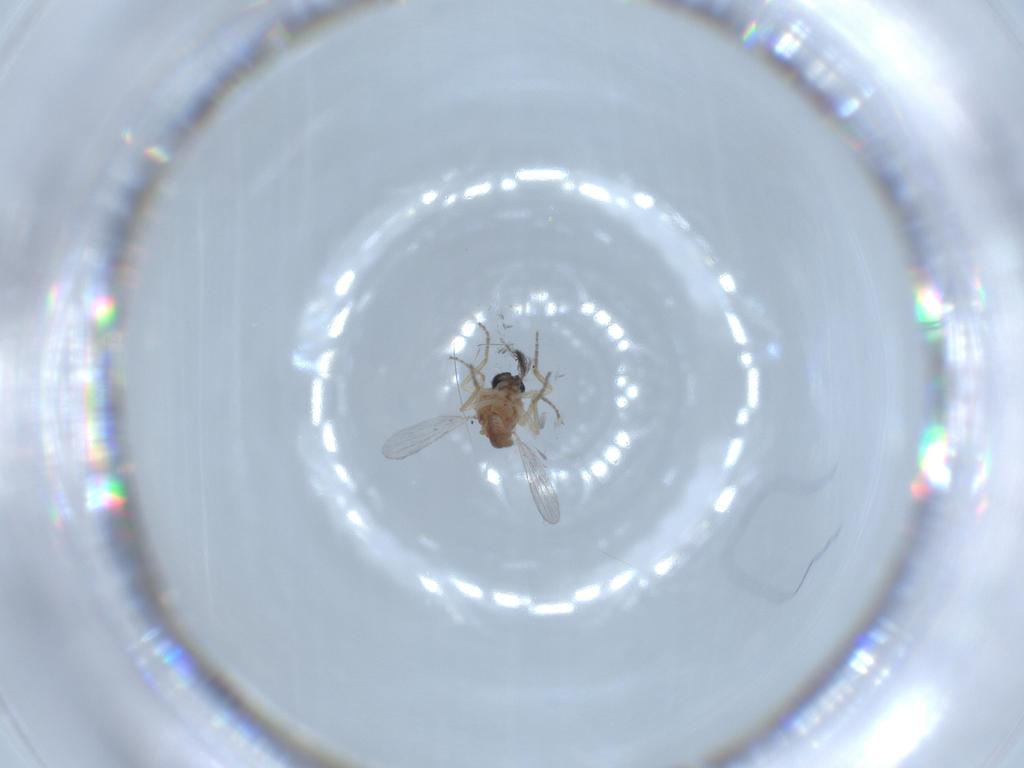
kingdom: Animalia
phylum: Arthropoda
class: Insecta
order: Diptera
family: Ceratopogonidae
